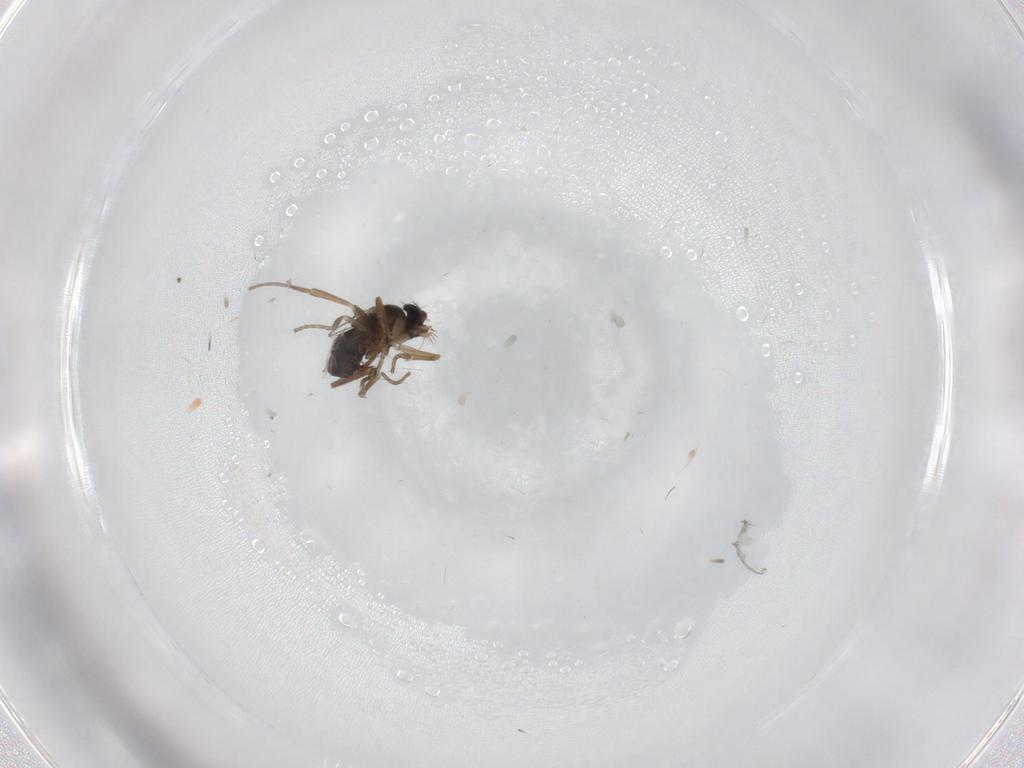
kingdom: Animalia
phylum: Arthropoda
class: Insecta
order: Diptera
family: Phoridae
